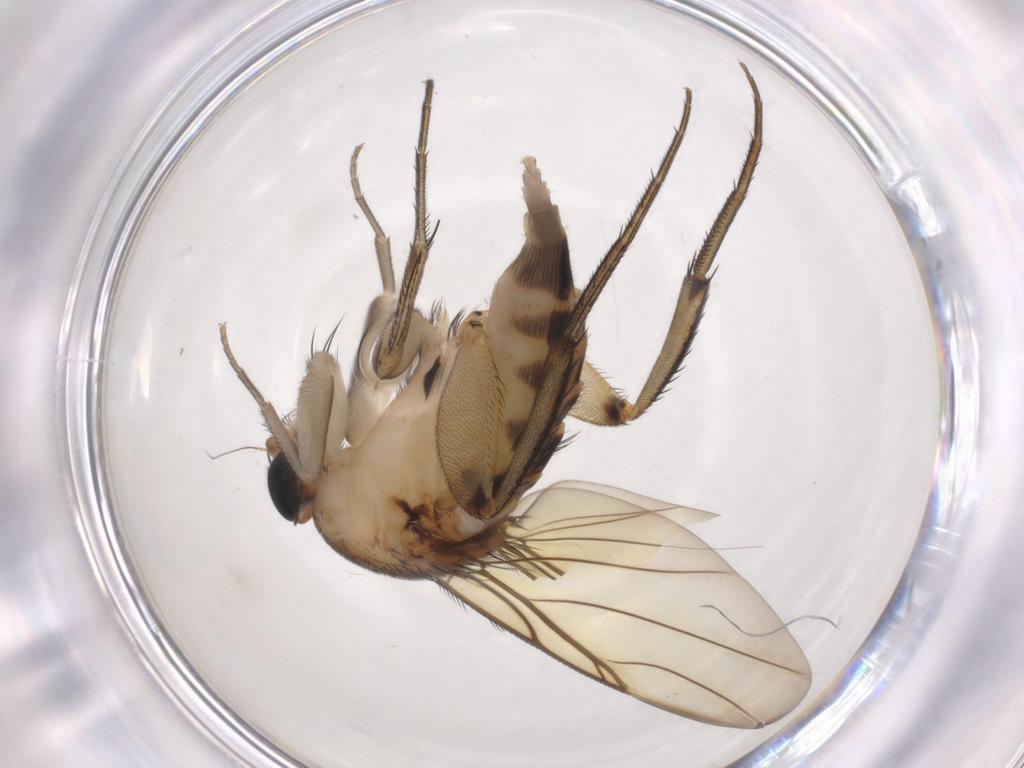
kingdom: Animalia
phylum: Arthropoda
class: Insecta
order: Diptera
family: Phoridae
